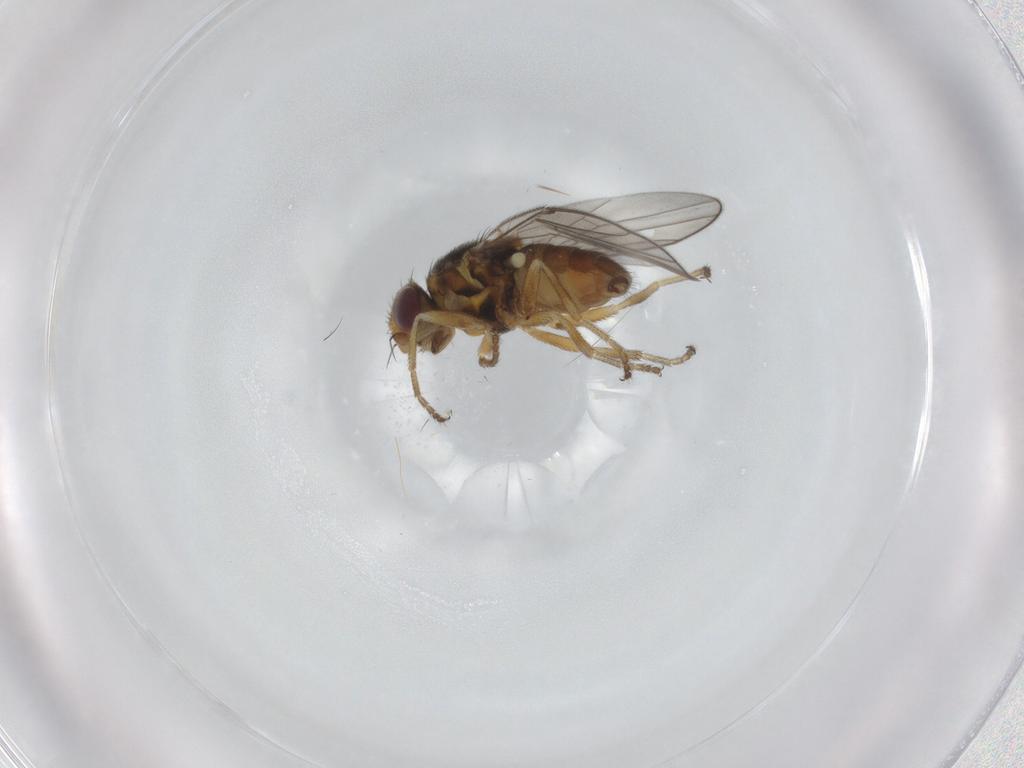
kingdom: Animalia
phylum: Arthropoda
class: Insecta
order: Diptera
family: Chloropidae
